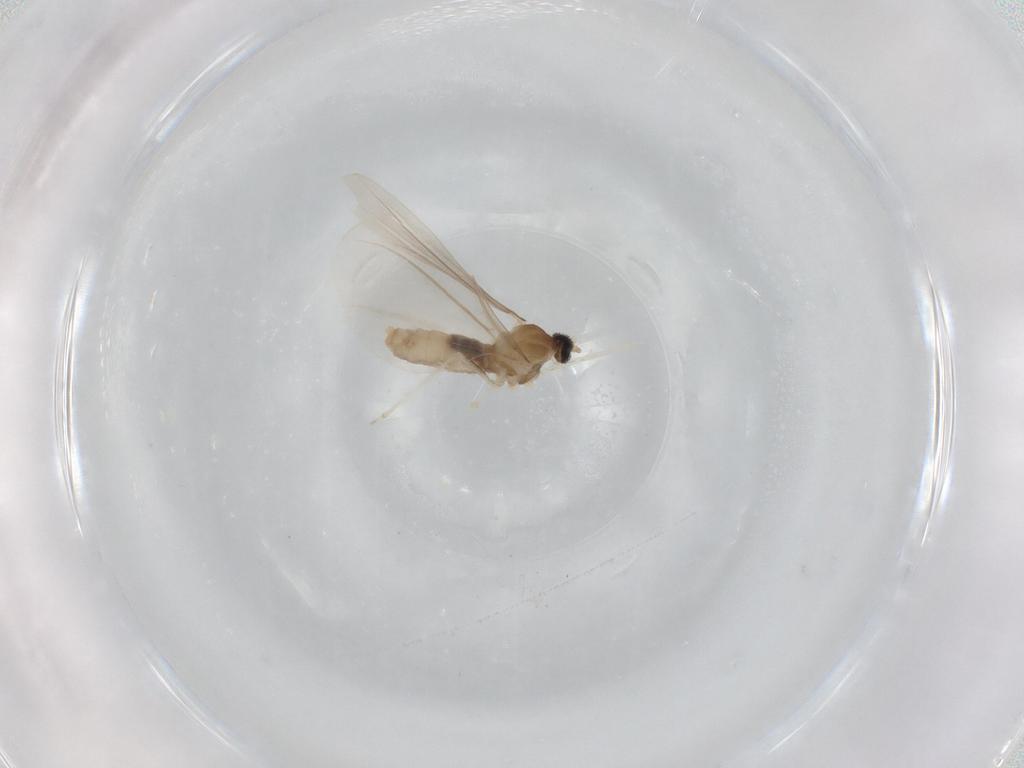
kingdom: Animalia
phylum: Arthropoda
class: Insecta
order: Diptera
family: Cecidomyiidae
